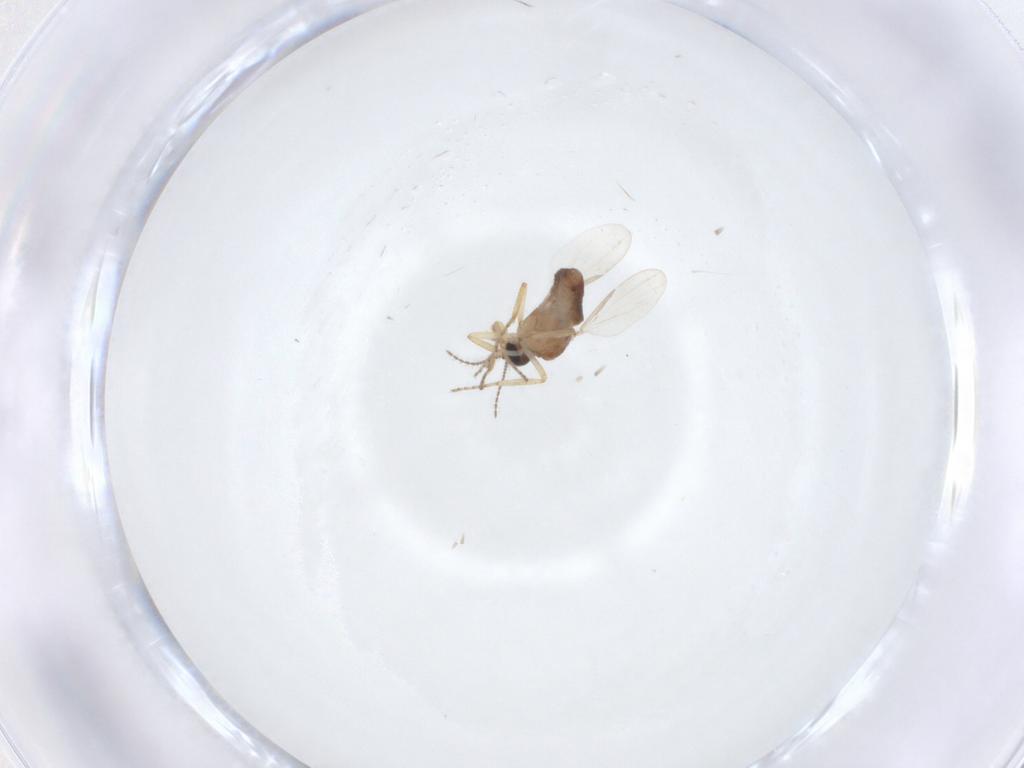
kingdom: Animalia
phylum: Arthropoda
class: Insecta
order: Diptera
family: Ceratopogonidae
